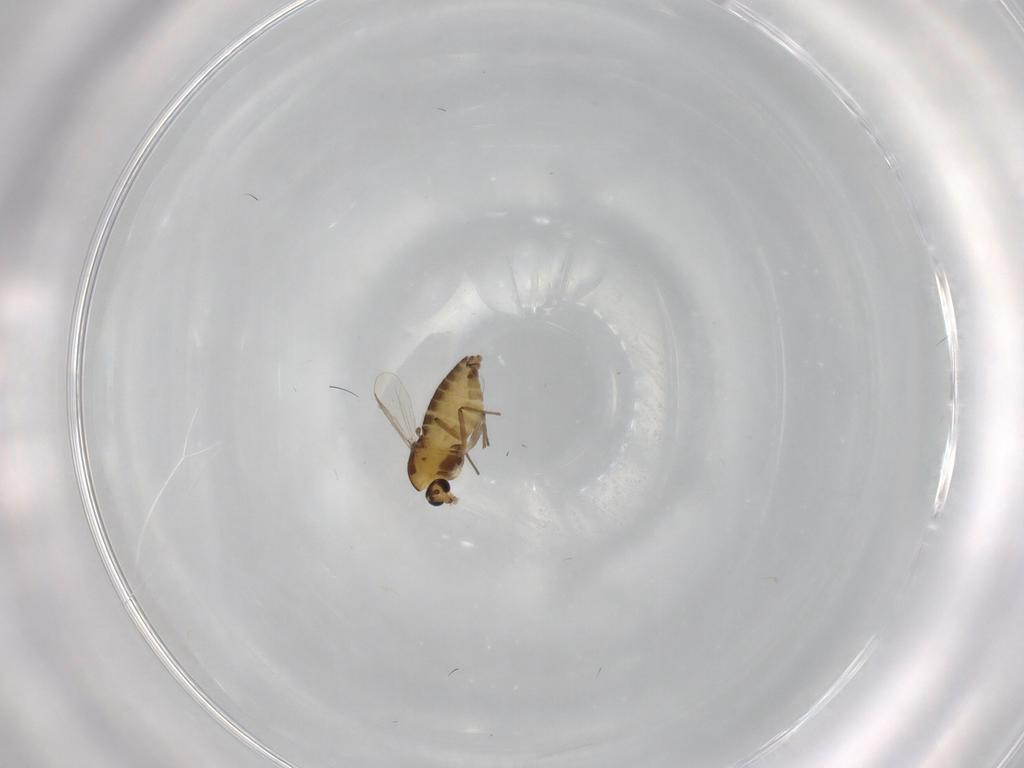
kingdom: Animalia
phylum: Arthropoda
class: Insecta
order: Diptera
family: Chironomidae
